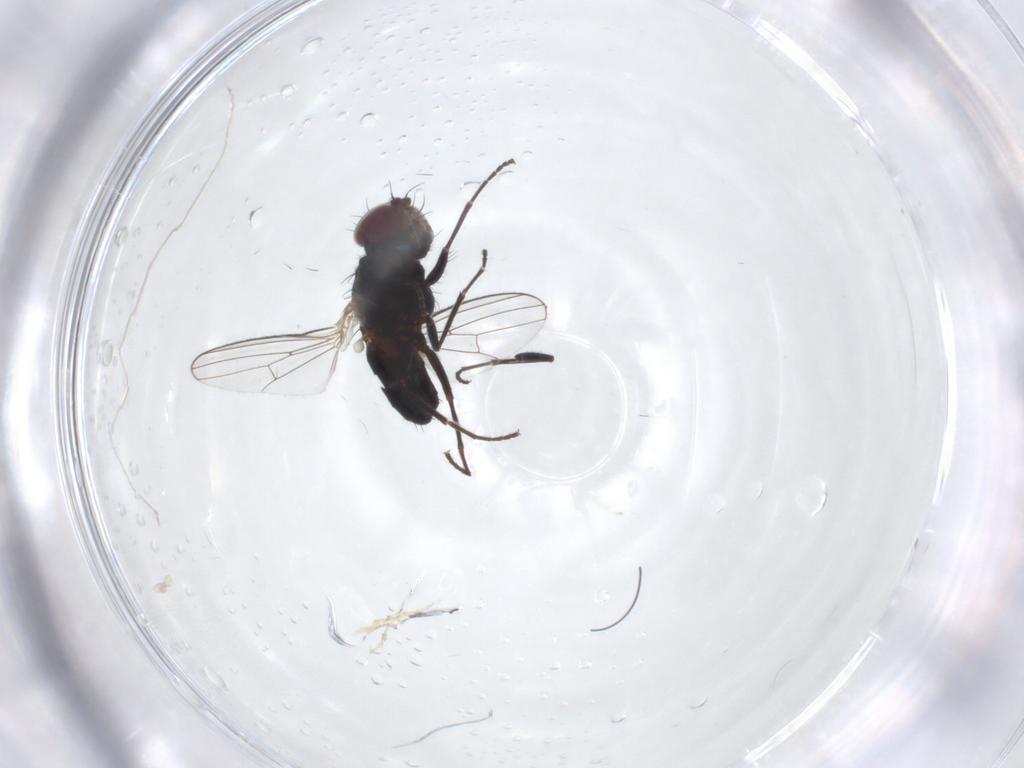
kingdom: Animalia
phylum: Arthropoda
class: Insecta
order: Diptera
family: Carnidae
